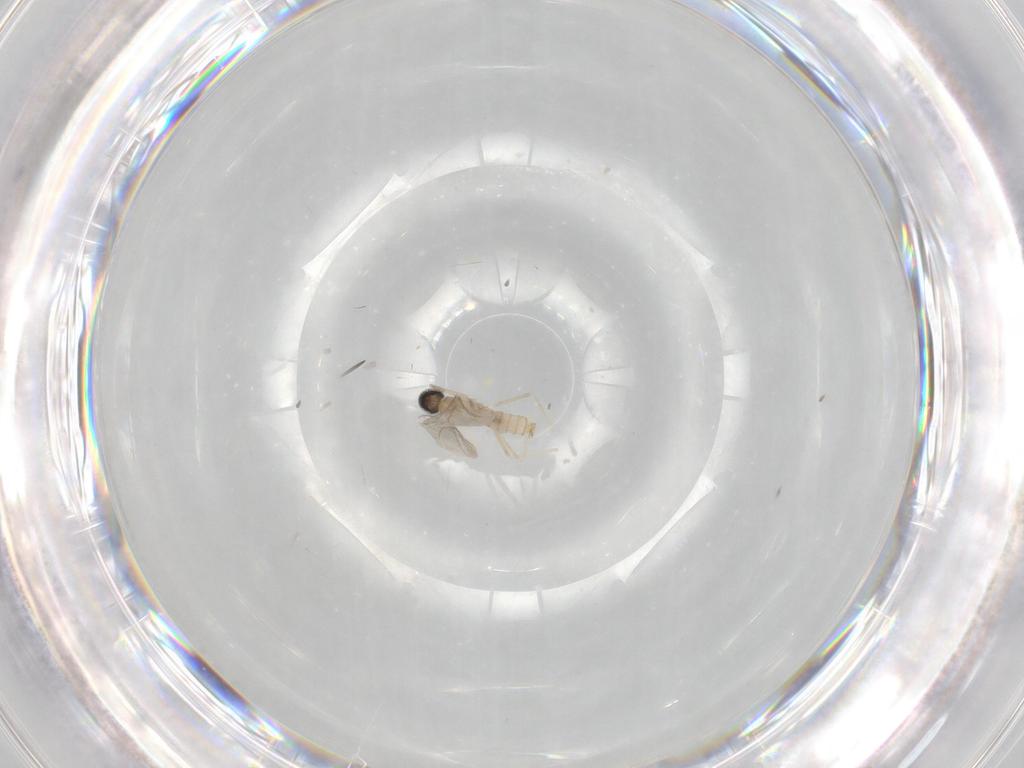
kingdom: Animalia
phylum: Arthropoda
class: Insecta
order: Diptera
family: Cecidomyiidae
